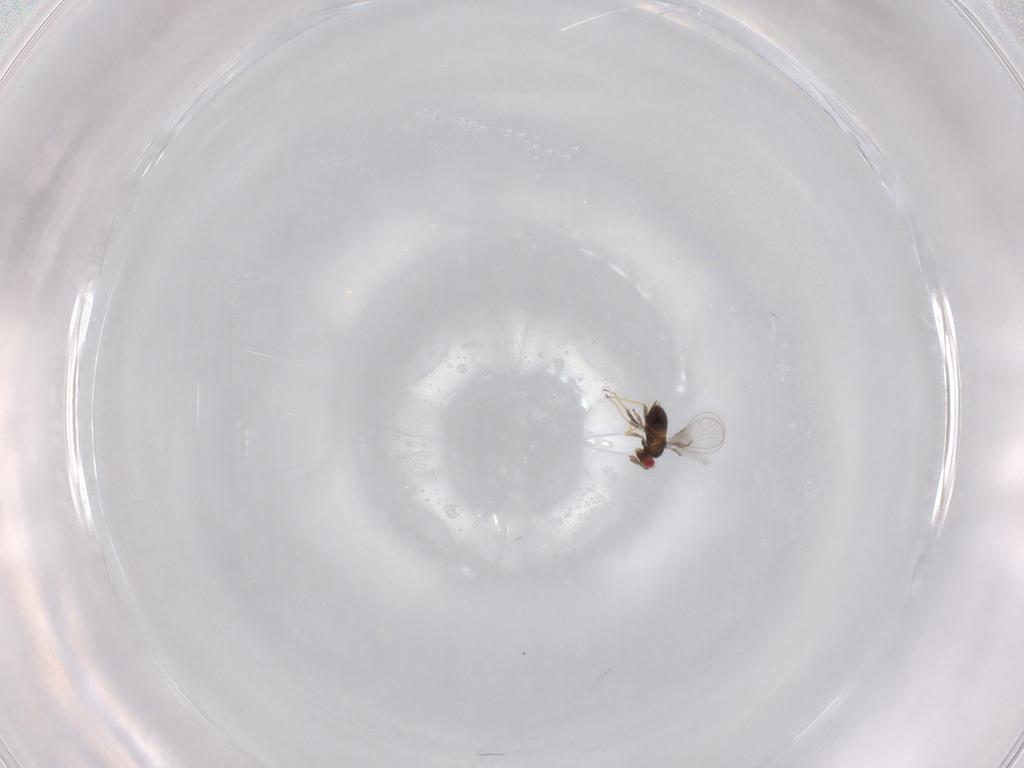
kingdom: Animalia
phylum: Arthropoda
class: Insecta
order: Hymenoptera
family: Trichogrammatidae
